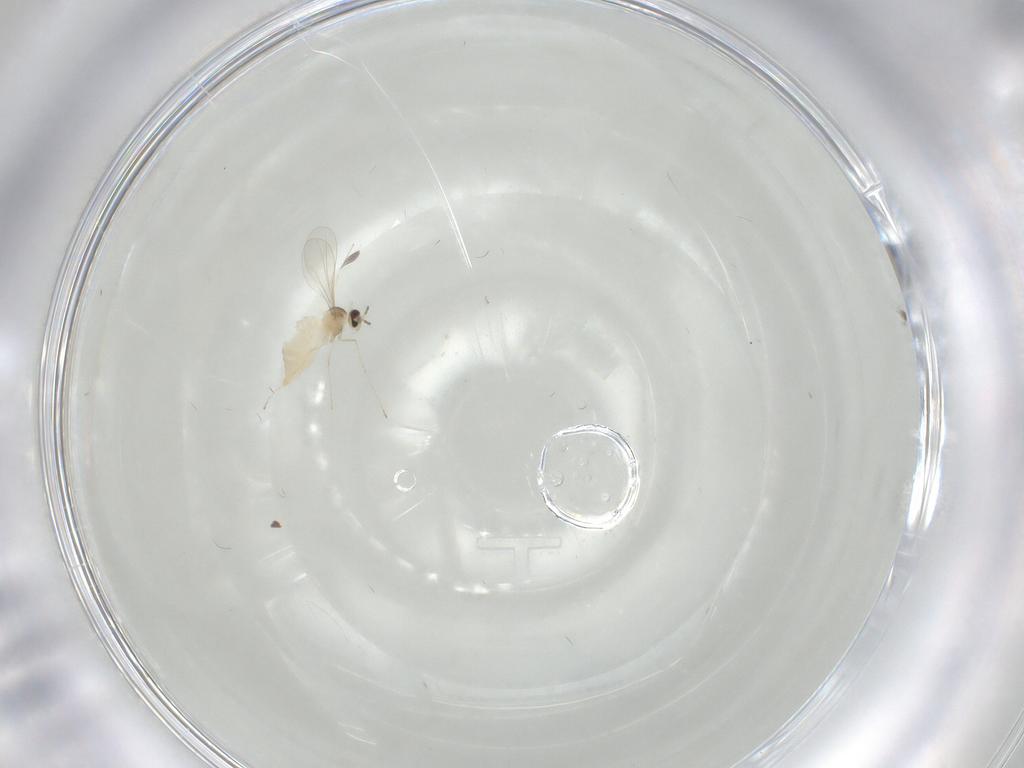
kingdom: Animalia
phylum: Arthropoda
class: Insecta
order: Diptera
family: Cecidomyiidae
